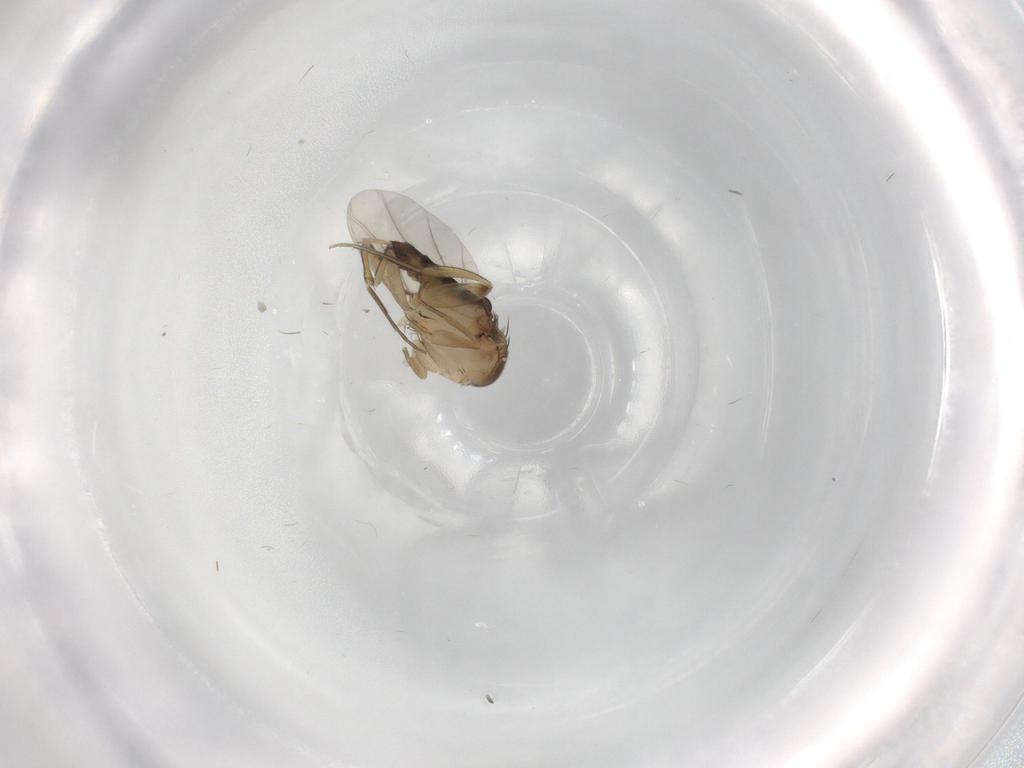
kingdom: Animalia
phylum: Arthropoda
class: Insecta
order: Diptera
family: Phoridae
